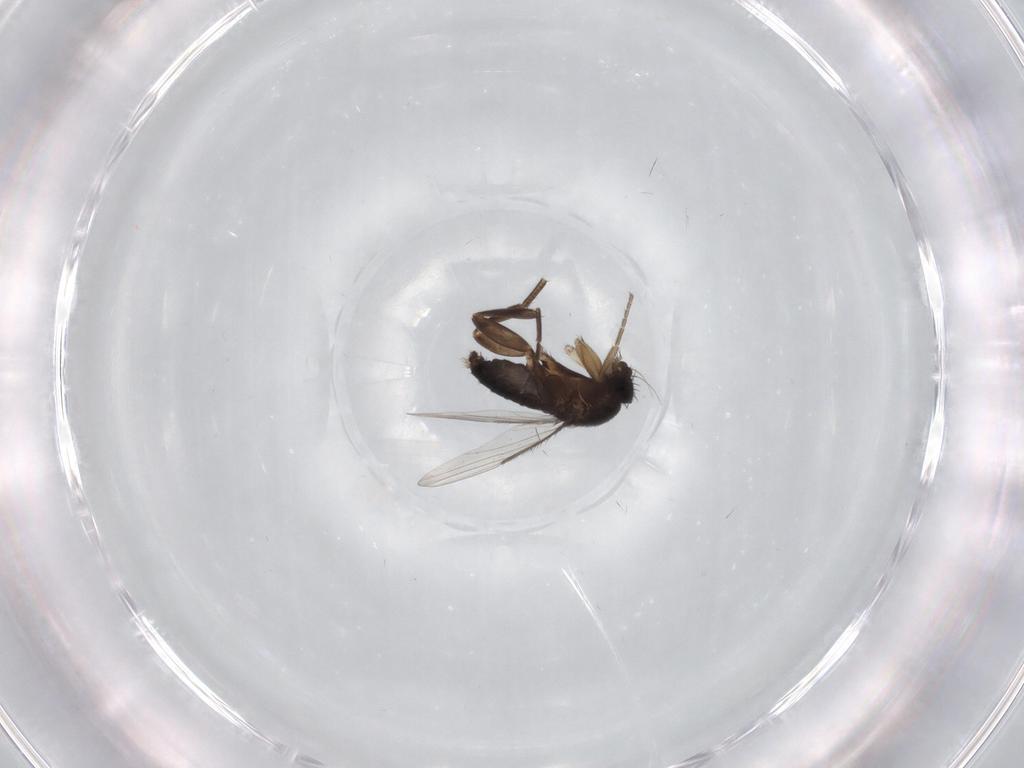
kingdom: Animalia
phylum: Arthropoda
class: Insecta
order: Diptera
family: Phoridae
